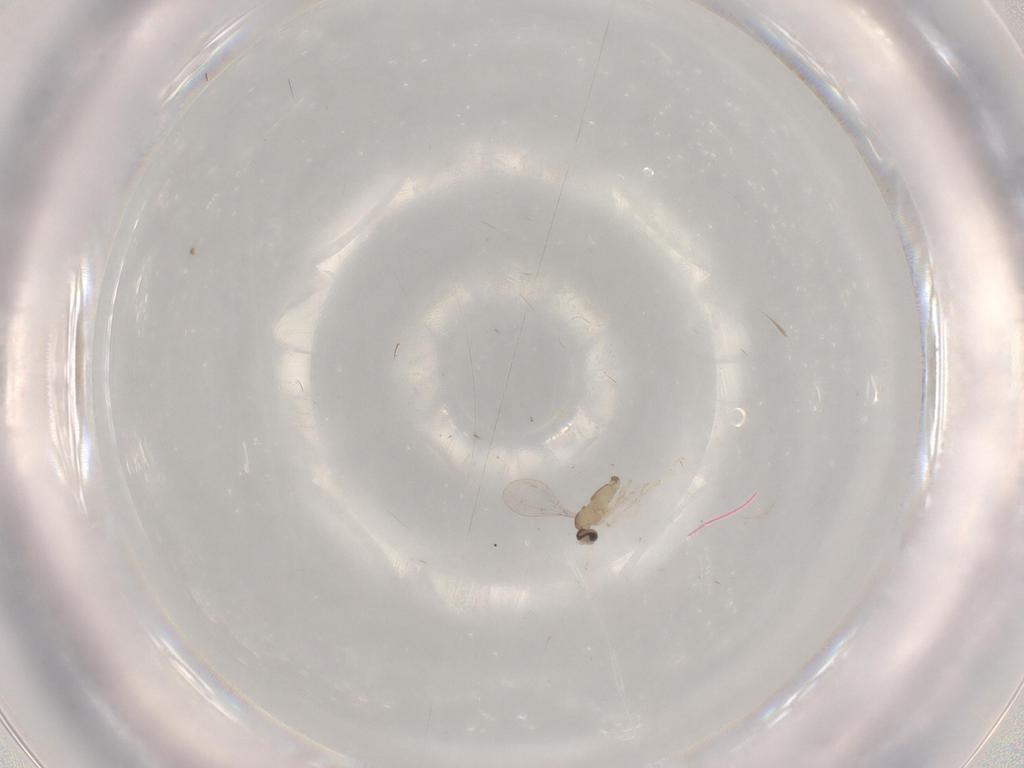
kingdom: Animalia
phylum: Arthropoda
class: Insecta
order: Diptera
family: Cecidomyiidae
